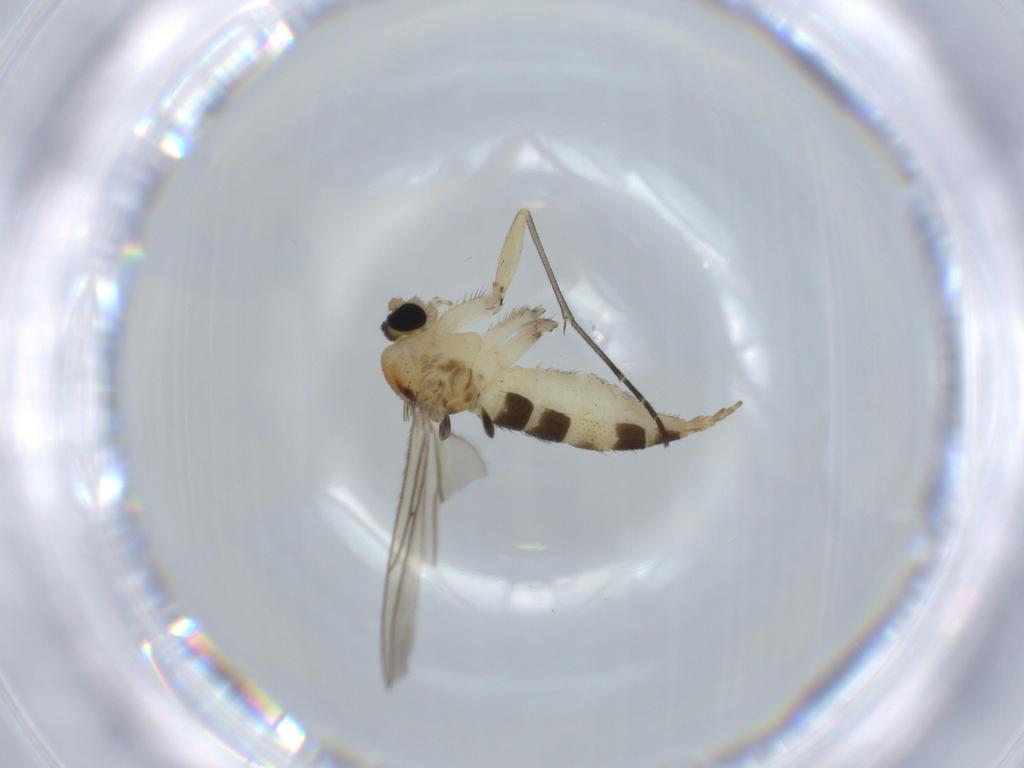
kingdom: Animalia
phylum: Arthropoda
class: Insecta
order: Diptera
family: Sciaridae
